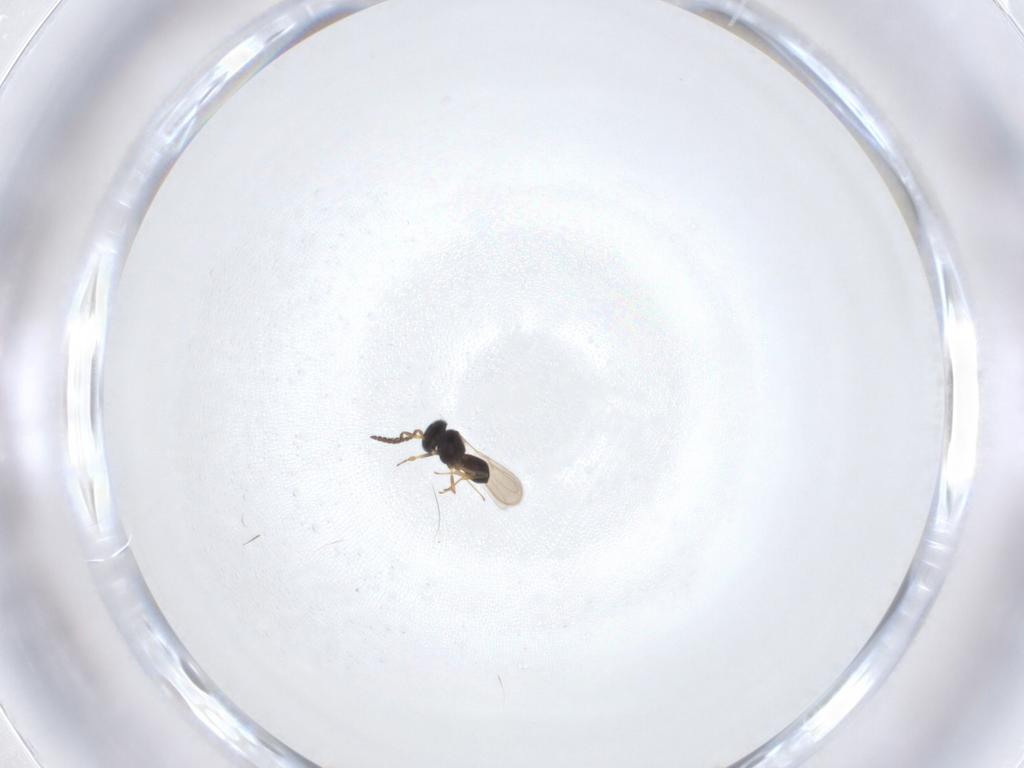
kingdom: Animalia
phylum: Arthropoda
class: Insecta
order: Hymenoptera
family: Scelionidae
